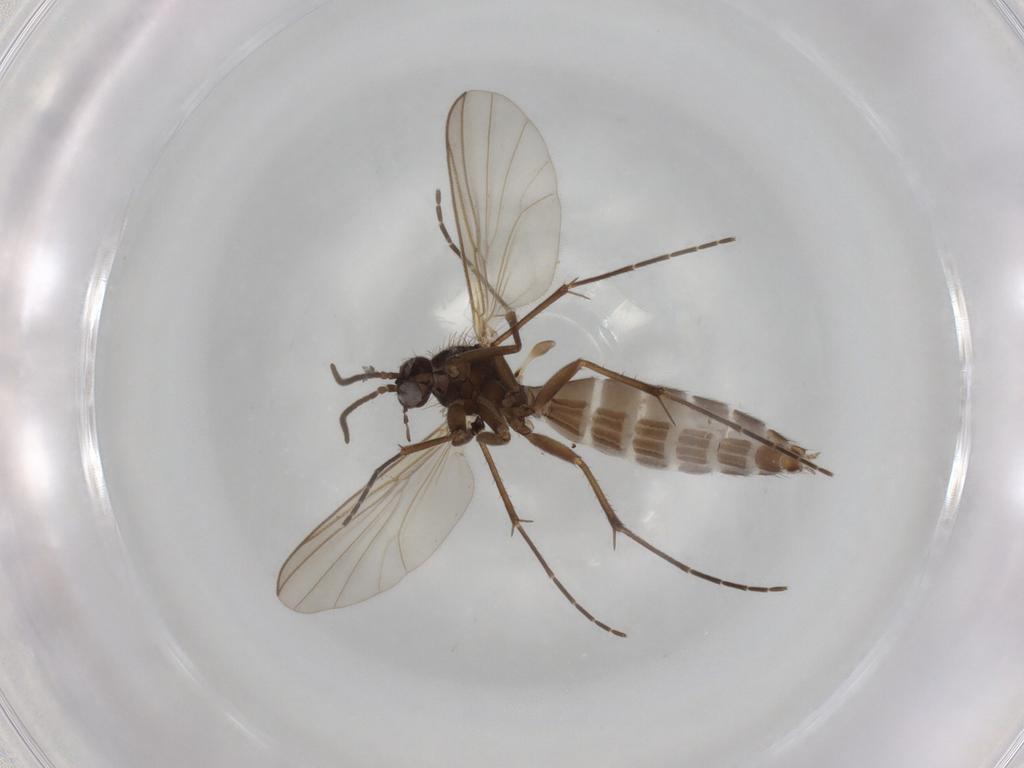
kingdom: Animalia
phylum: Arthropoda
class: Insecta
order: Diptera
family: Mycetophilidae
